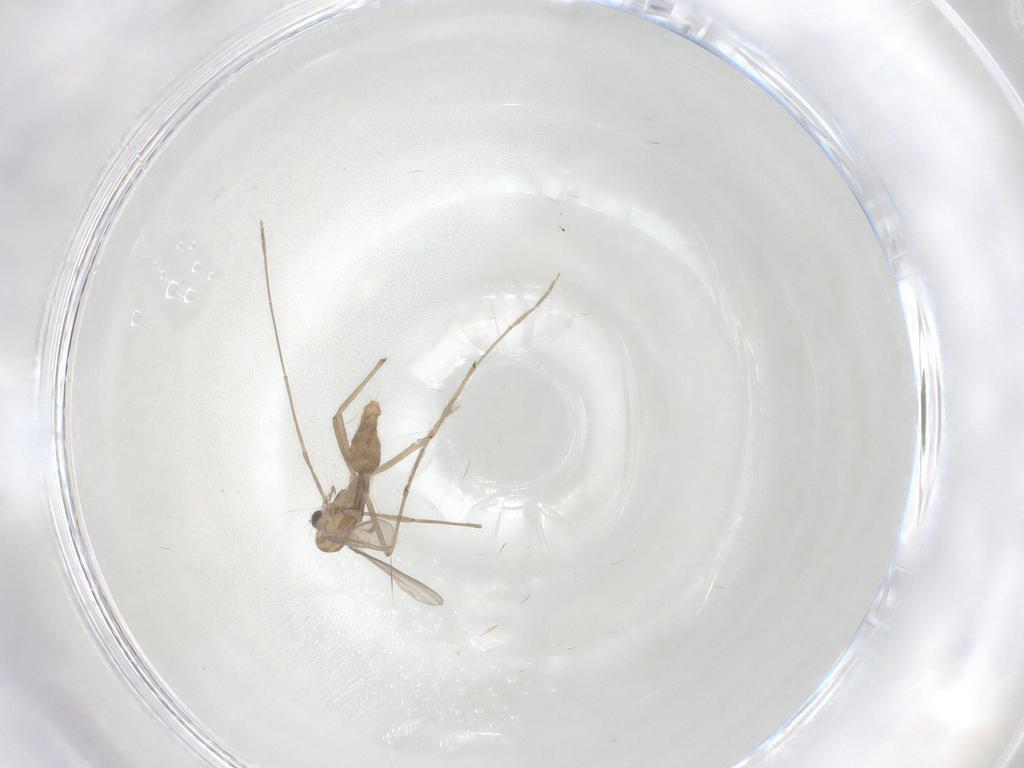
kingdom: Animalia
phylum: Arthropoda
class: Insecta
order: Diptera
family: Chironomidae
